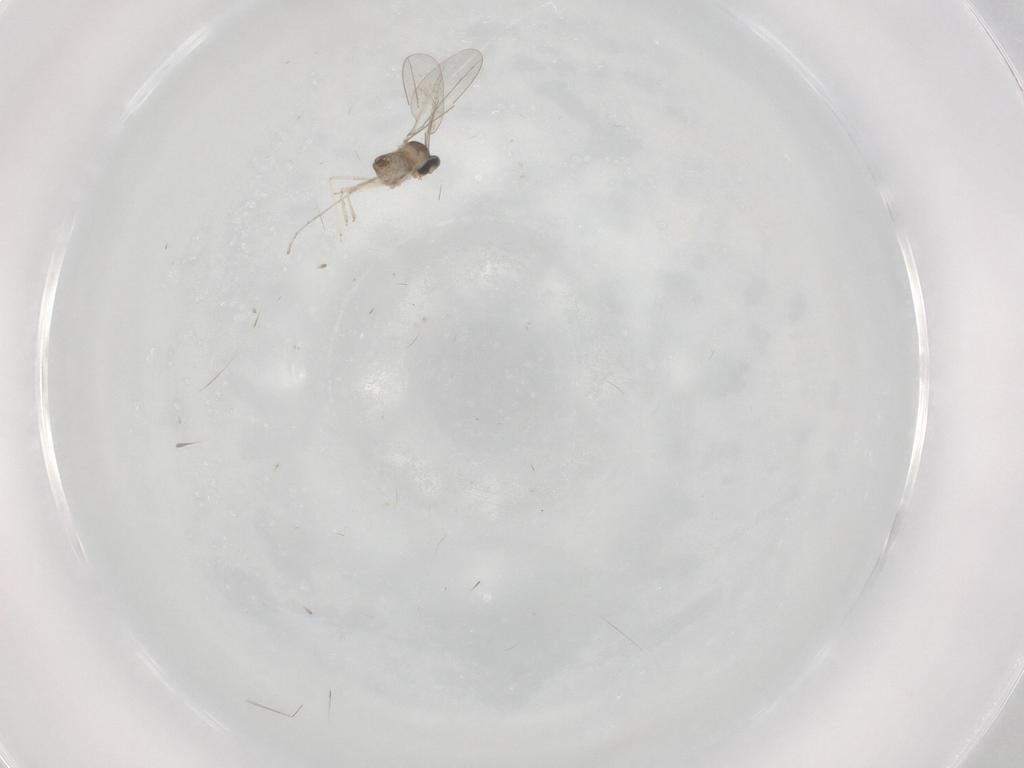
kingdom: Animalia
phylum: Arthropoda
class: Insecta
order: Diptera
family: Cecidomyiidae
